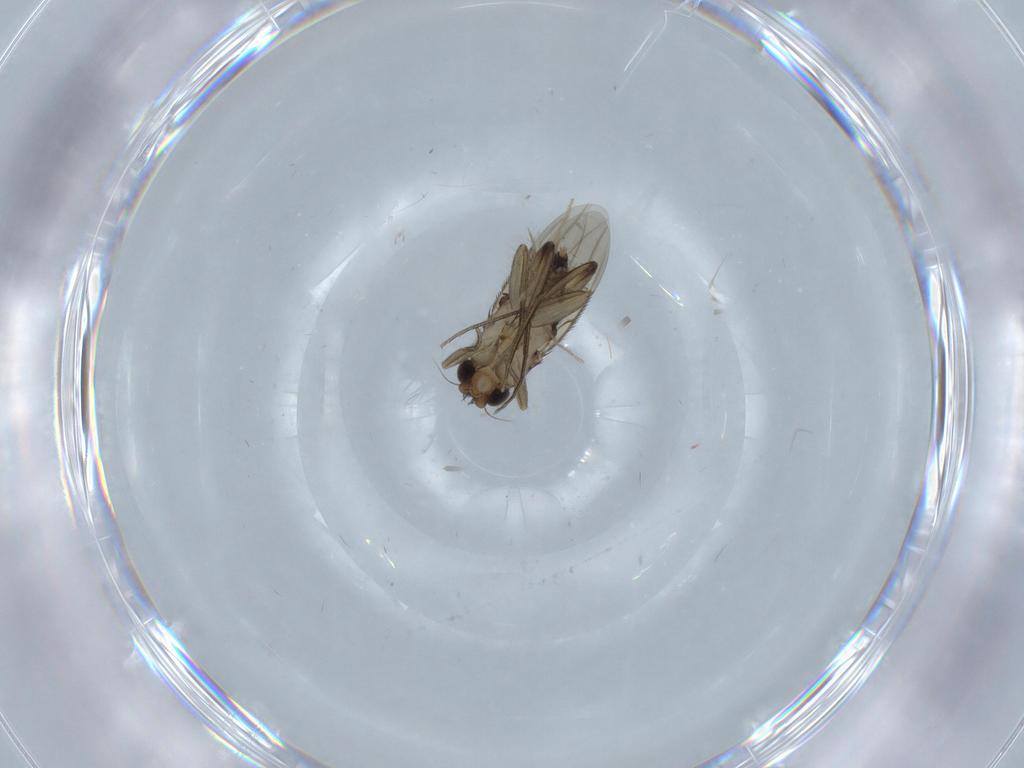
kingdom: Animalia
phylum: Arthropoda
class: Insecta
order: Diptera
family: Chironomidae
